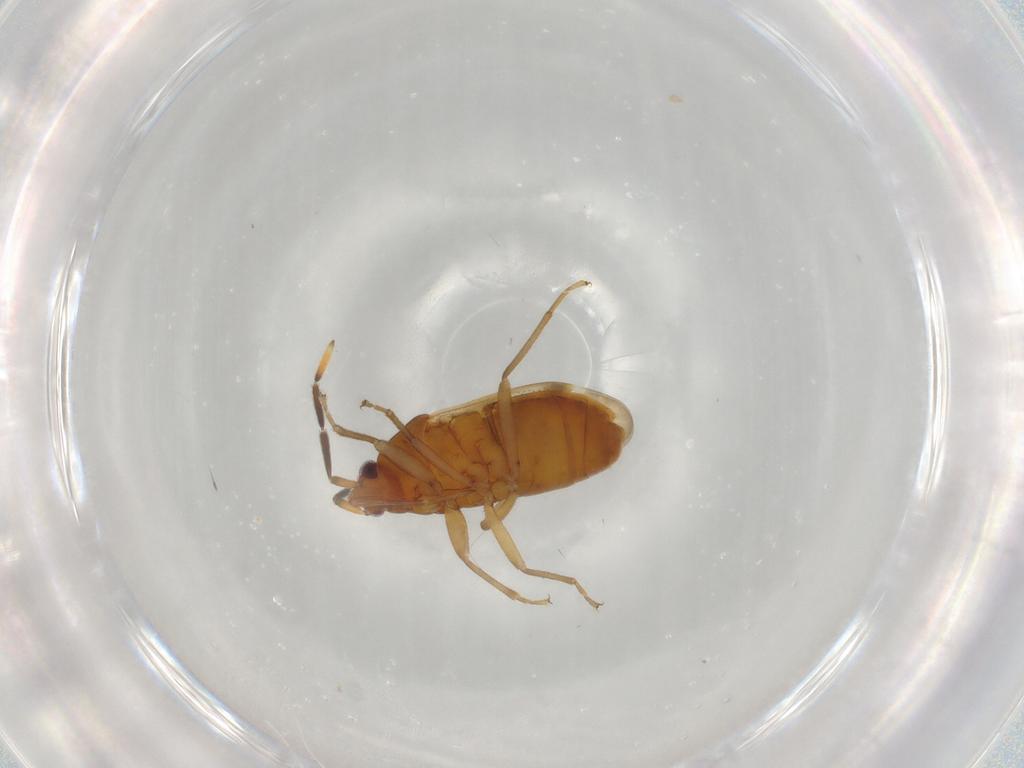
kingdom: Animalia
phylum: Arthropoda
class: Insecta
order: Hemiptera
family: Rhyparochromidae
